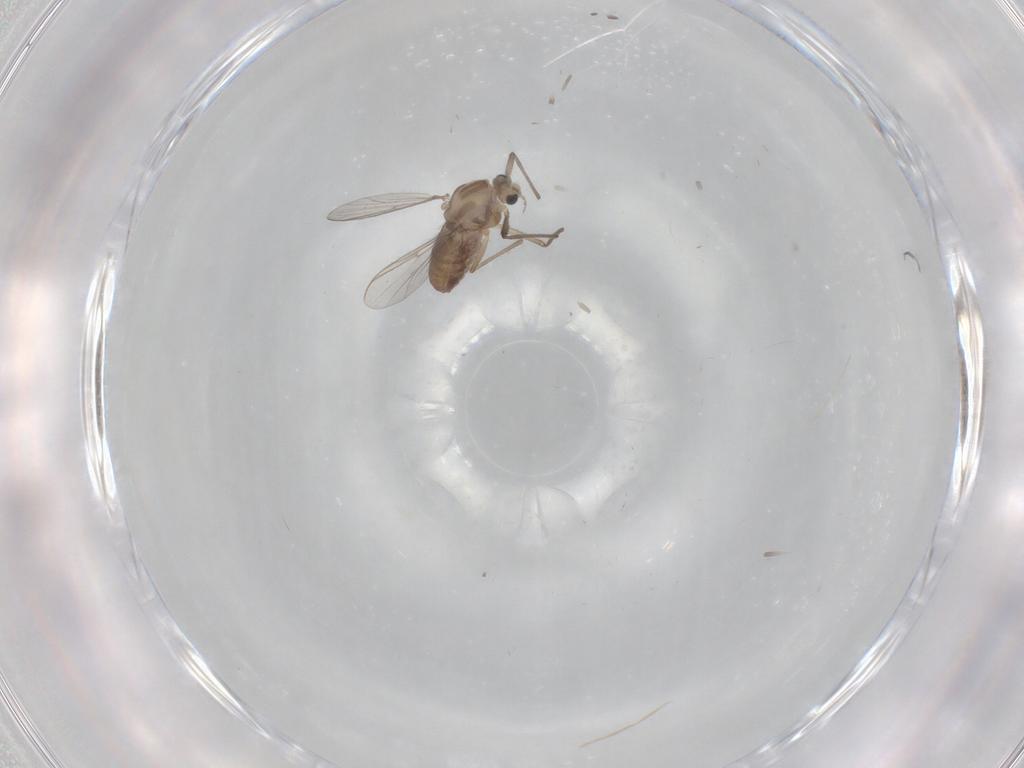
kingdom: Animalia
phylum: Arthropoda
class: Insecta
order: Diptera
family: Chironomidae
